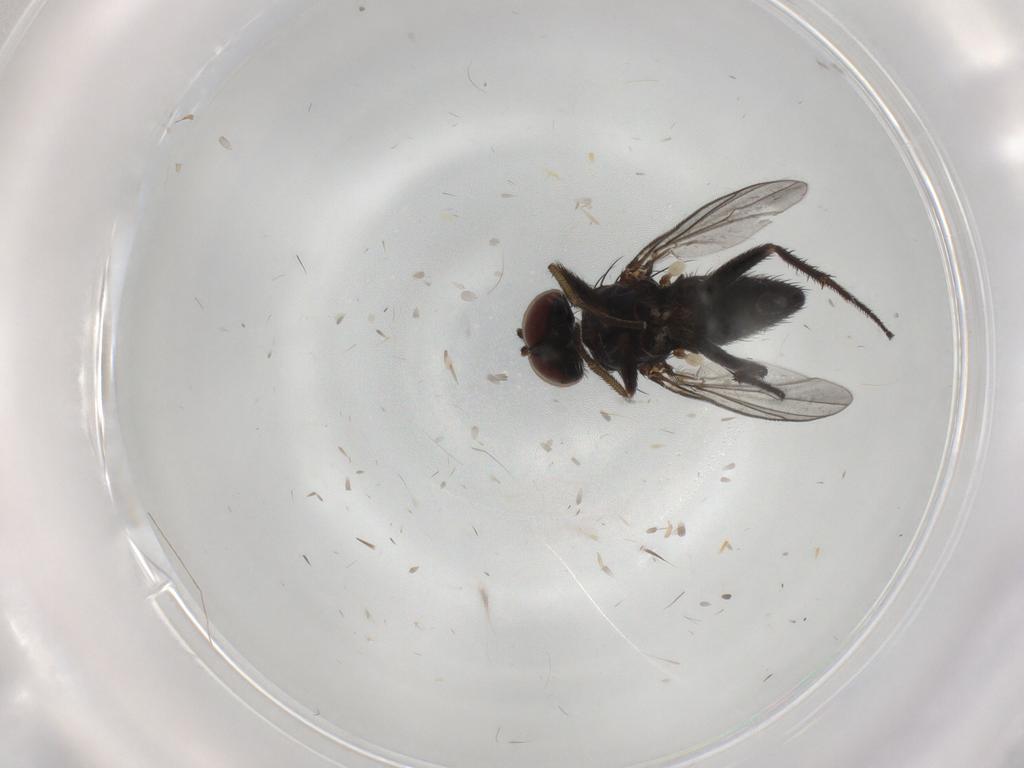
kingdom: Animalia
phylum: Arthropoda
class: Insecta
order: Diptera
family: Dolichopodidae
